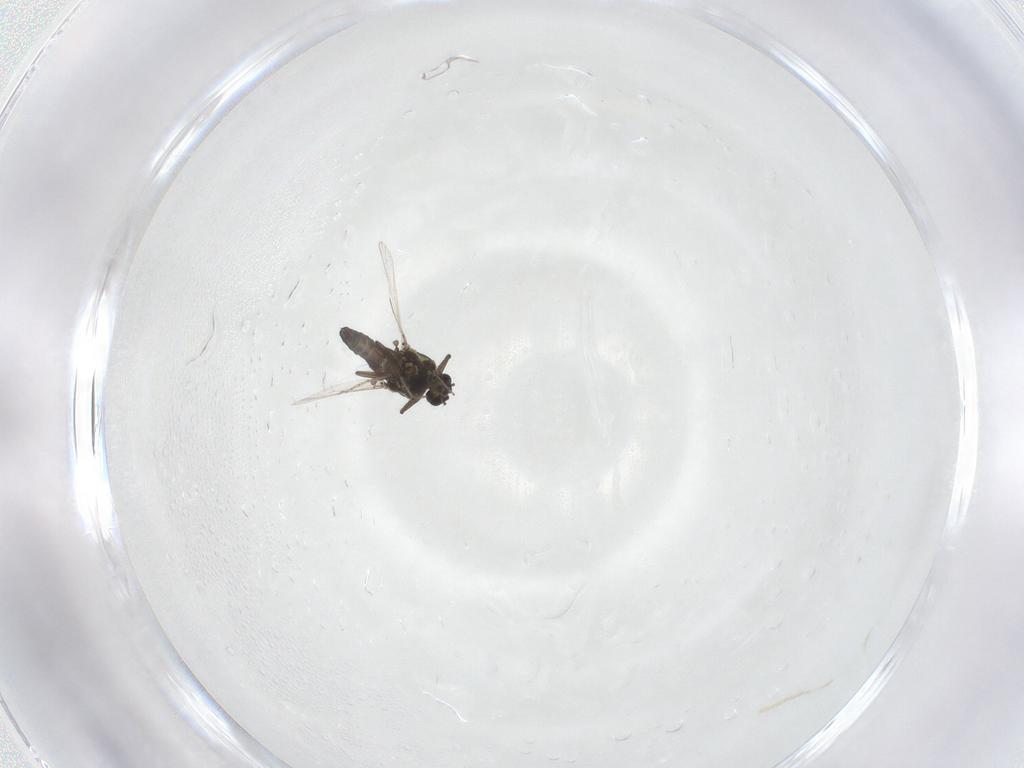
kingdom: Animalia
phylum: Arthropoda
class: Insecta
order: Diptera
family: Ceratopogonidae
